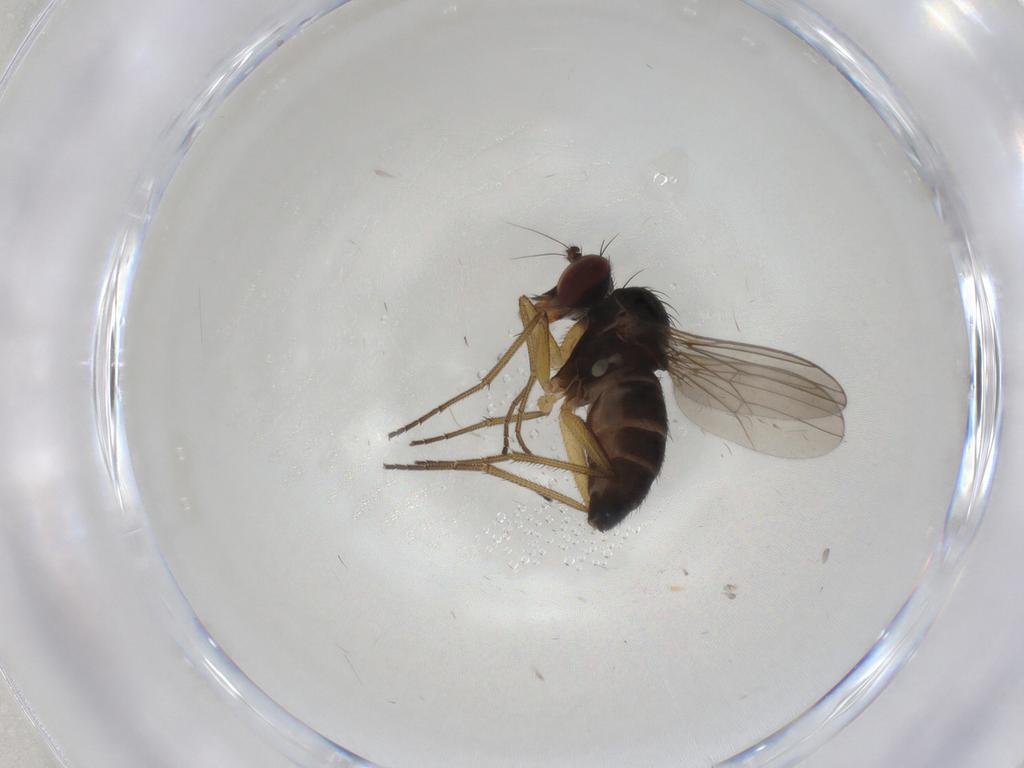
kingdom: Animalia
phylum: Arthropoda
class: Insecta
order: Diptera
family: Dolichopodidae
